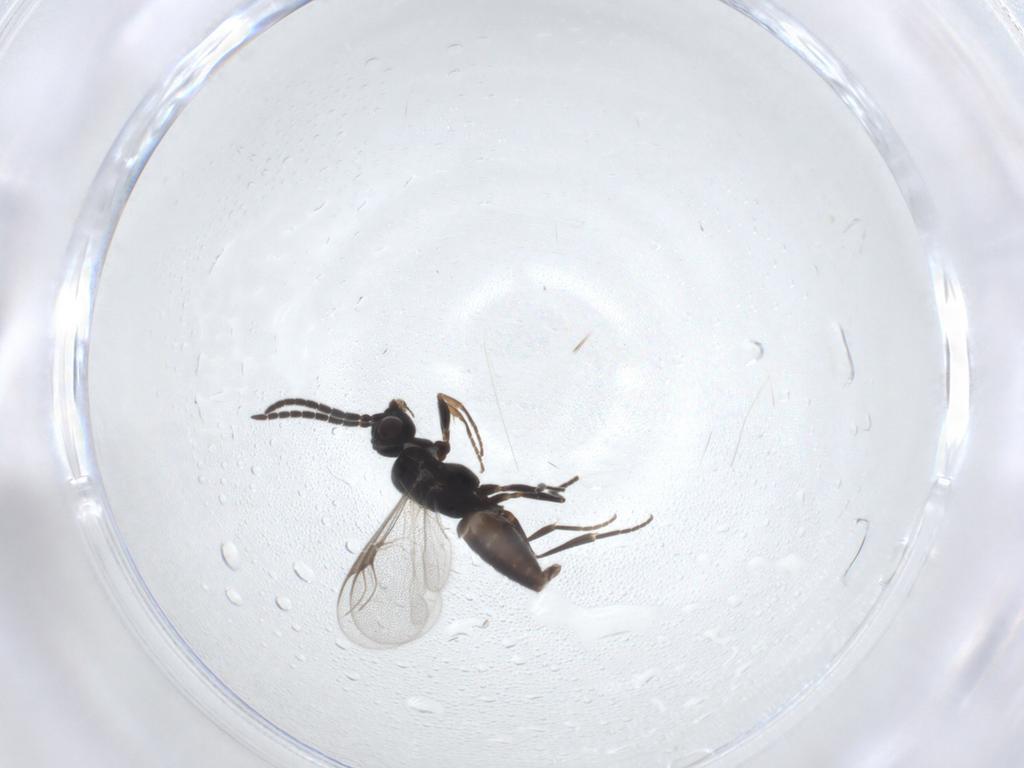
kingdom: Animalia
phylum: Arthropoda
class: Insecta
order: Hymenoptera
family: Dryinidae
